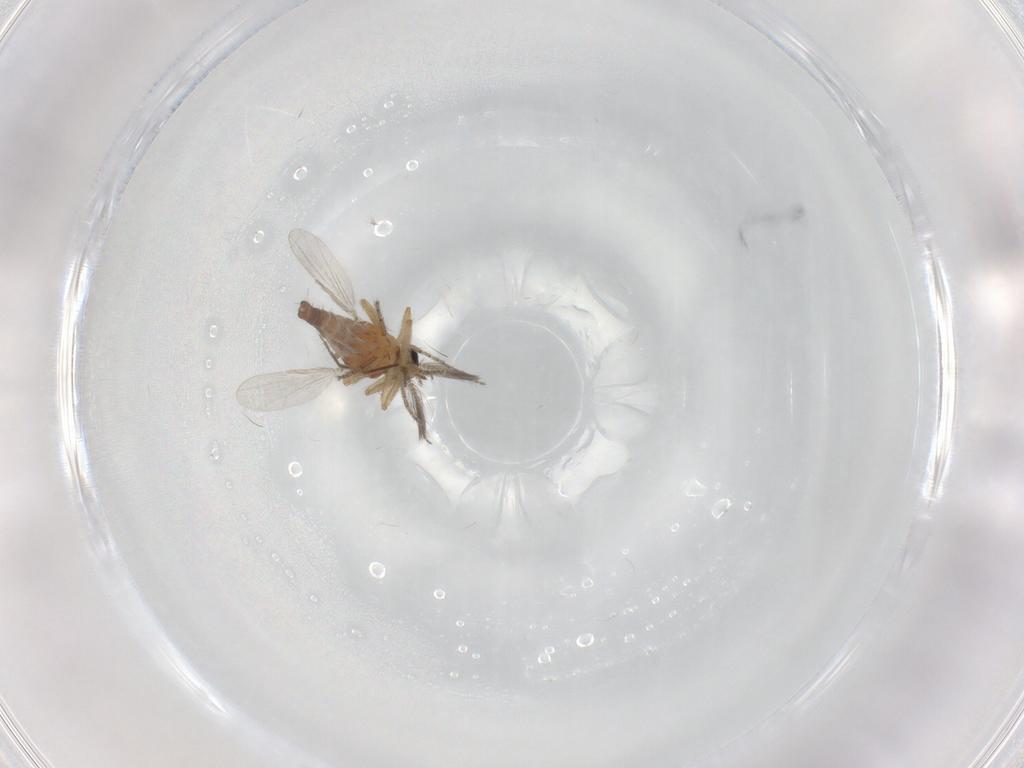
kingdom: Animalia
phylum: Arthropoda
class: Insecta
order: Diptera
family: Ceratopogonidae
